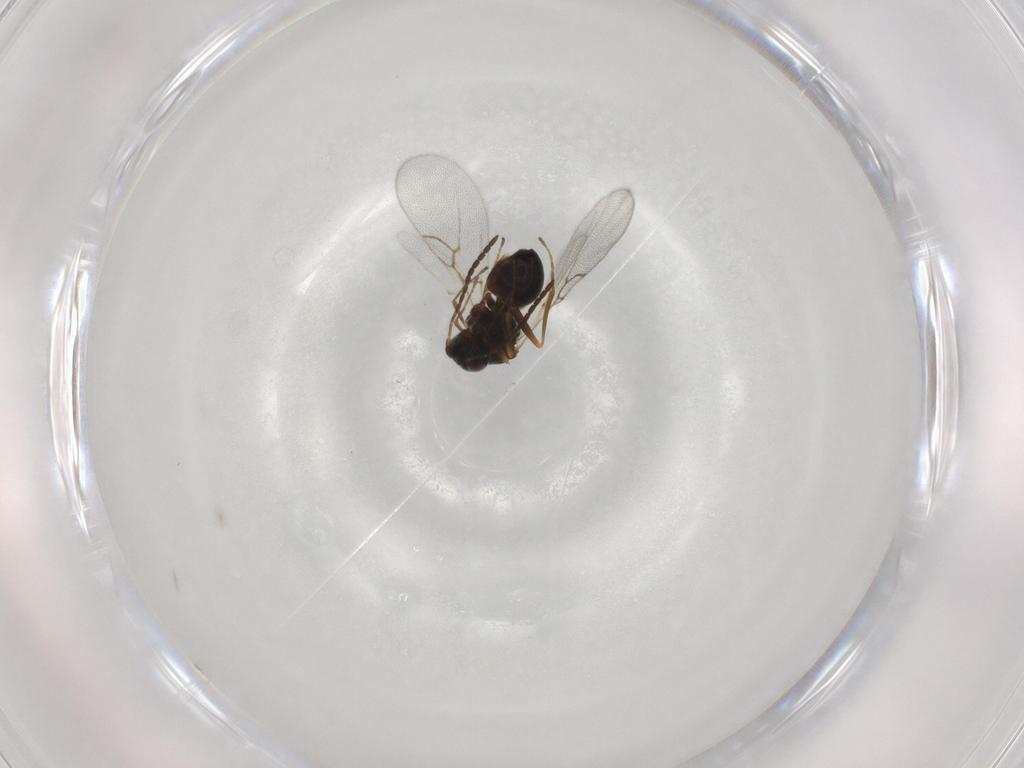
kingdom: Animalia
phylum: Arthropoda
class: Insecta
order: Hymenoptera
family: Figitidae
